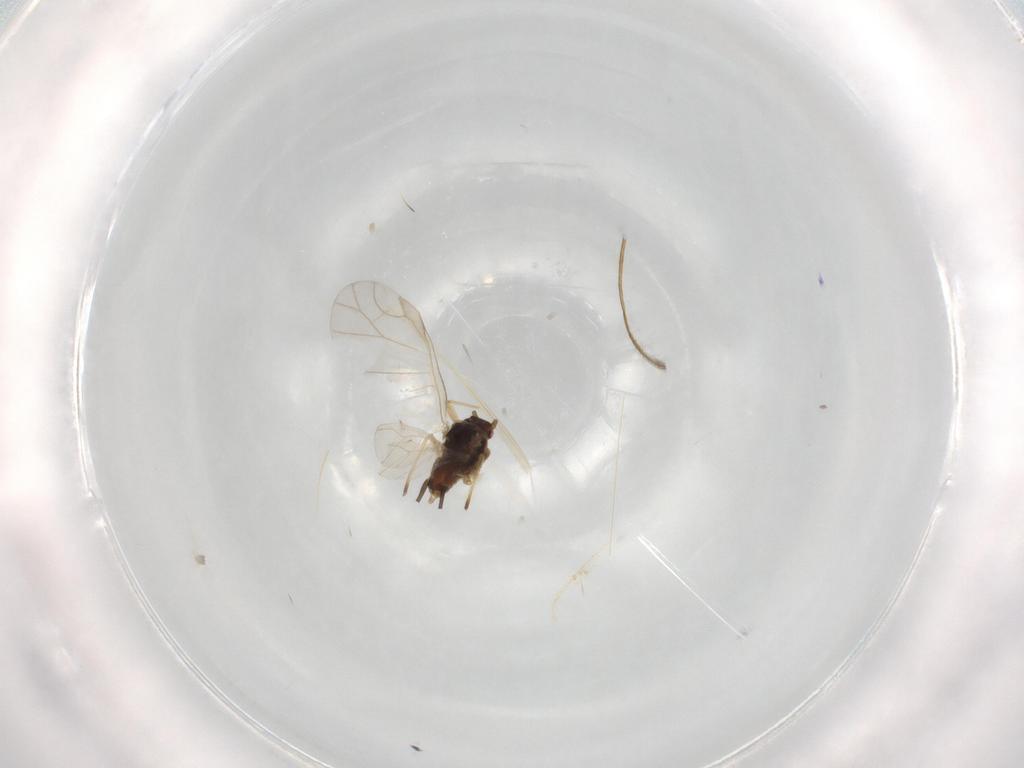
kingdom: Animalia
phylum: Arthropoda
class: Insecta
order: Hemiptera
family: Aphididae
